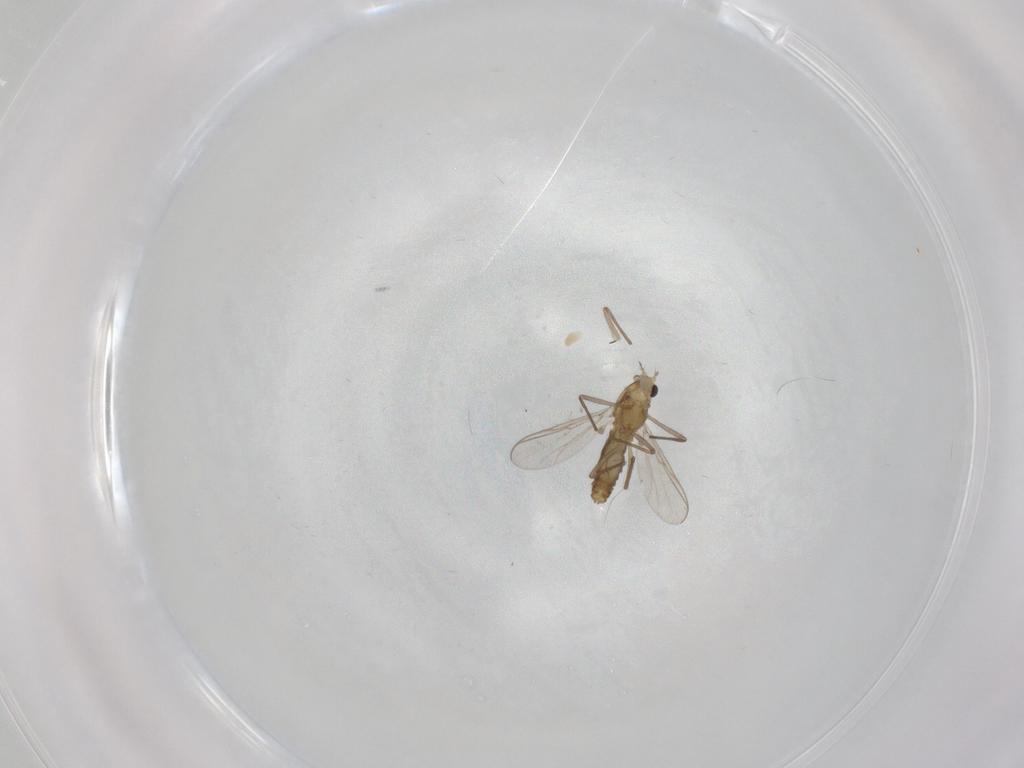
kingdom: Animalia
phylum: Arthropoda
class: Insecta
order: Diptera
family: Chironomidae
